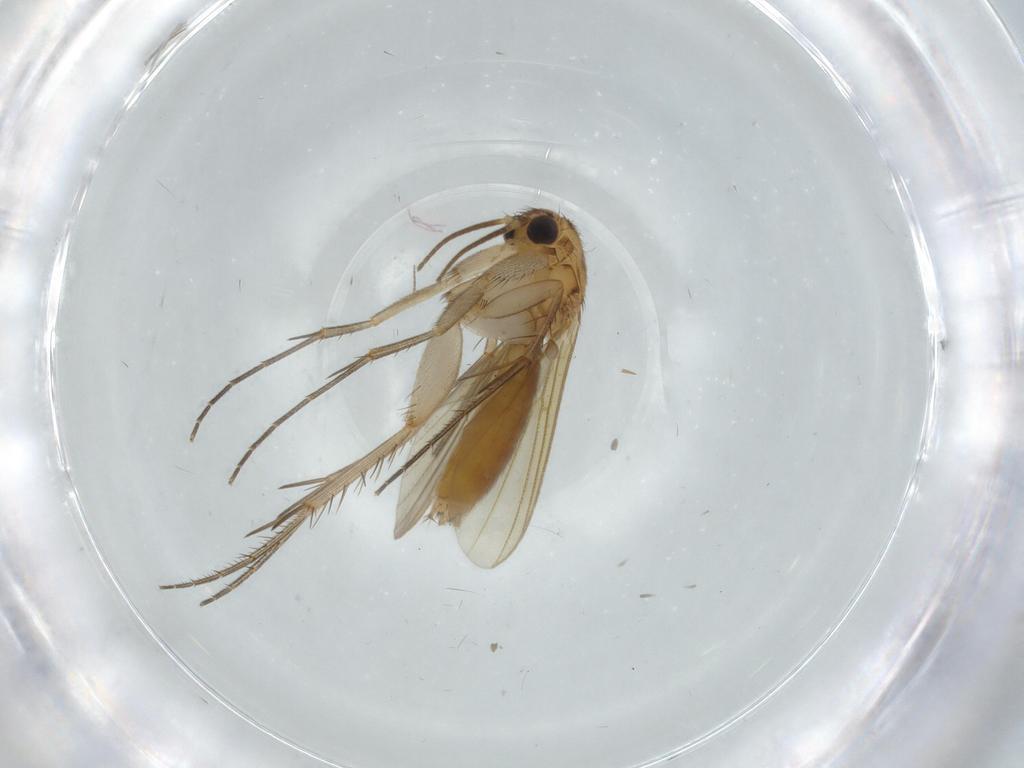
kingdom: Animalia
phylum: Arthropoda
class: Insecta
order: Diptera
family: Mycetophilidae
